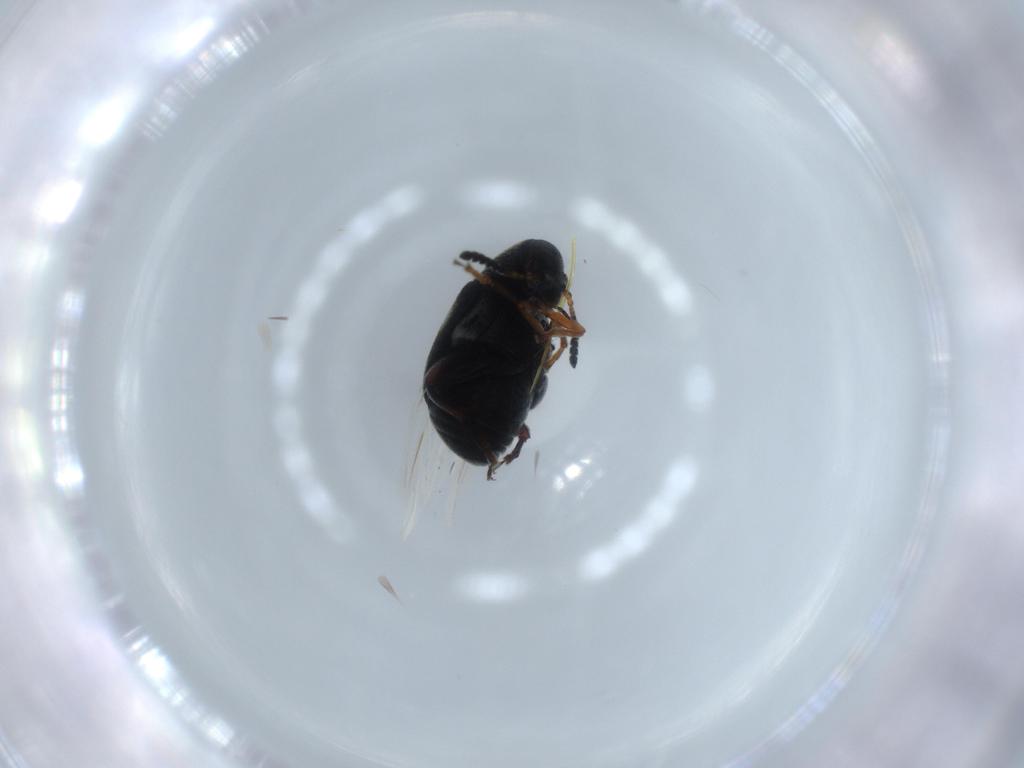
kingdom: Animalia
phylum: Arthropoda
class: Insecta
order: Coleoptera
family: Chrysomelidae
